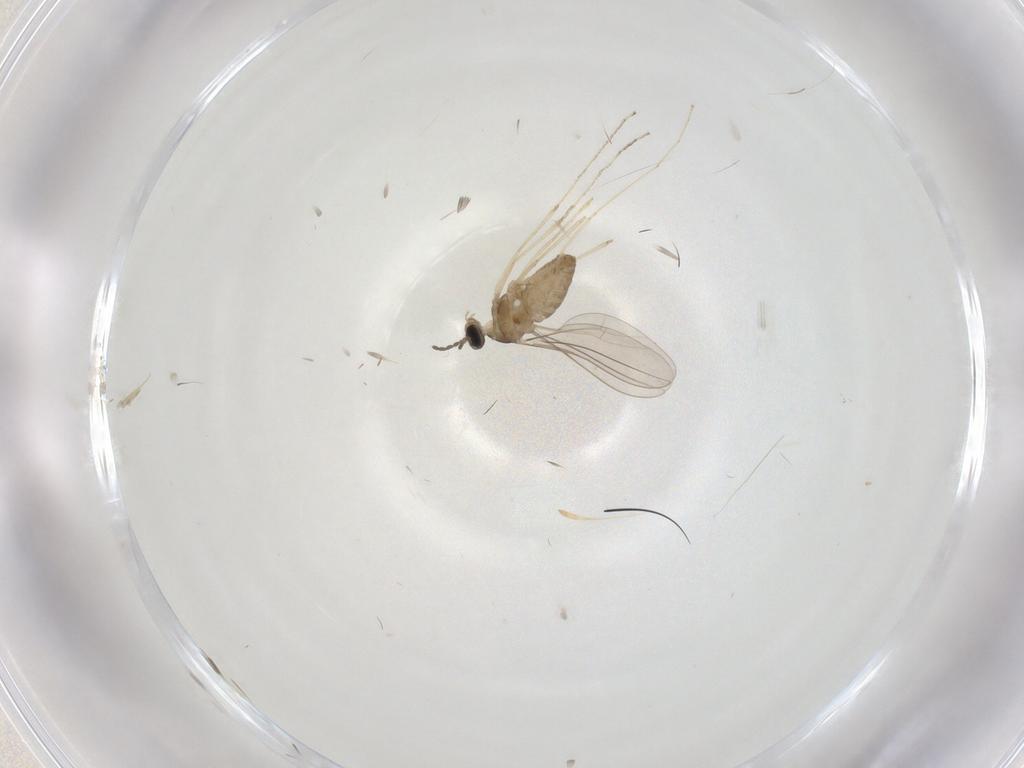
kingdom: Animalia
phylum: Arthropoda
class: Insecta
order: Diptera
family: Cecidomyiidae
